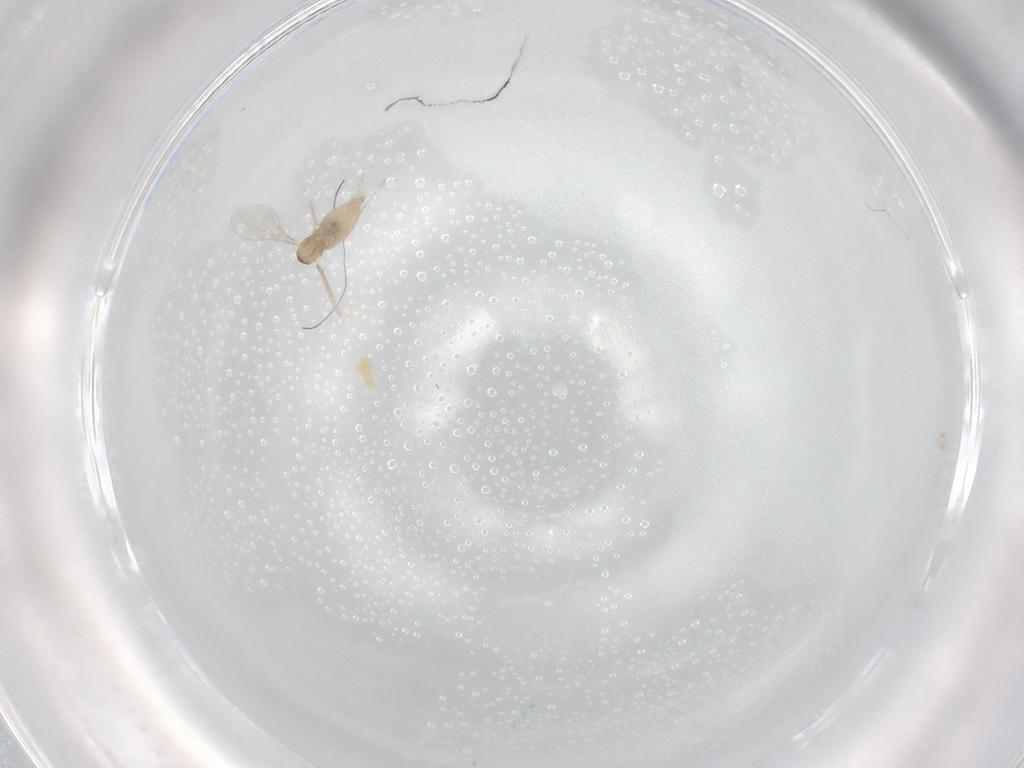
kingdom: Animalia
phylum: Arthropoda
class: Insecta
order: Diptera
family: Cecidomyiidae
